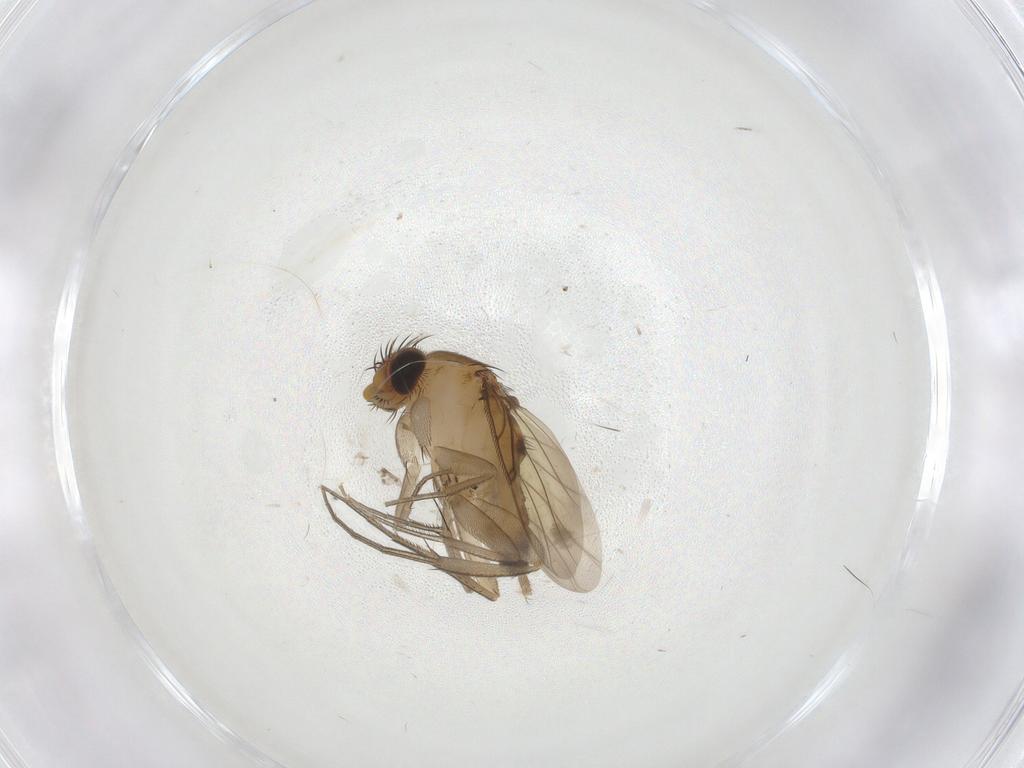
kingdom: Animalia
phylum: Arthropoda
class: Insecta
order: Diptera
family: Phoridae
